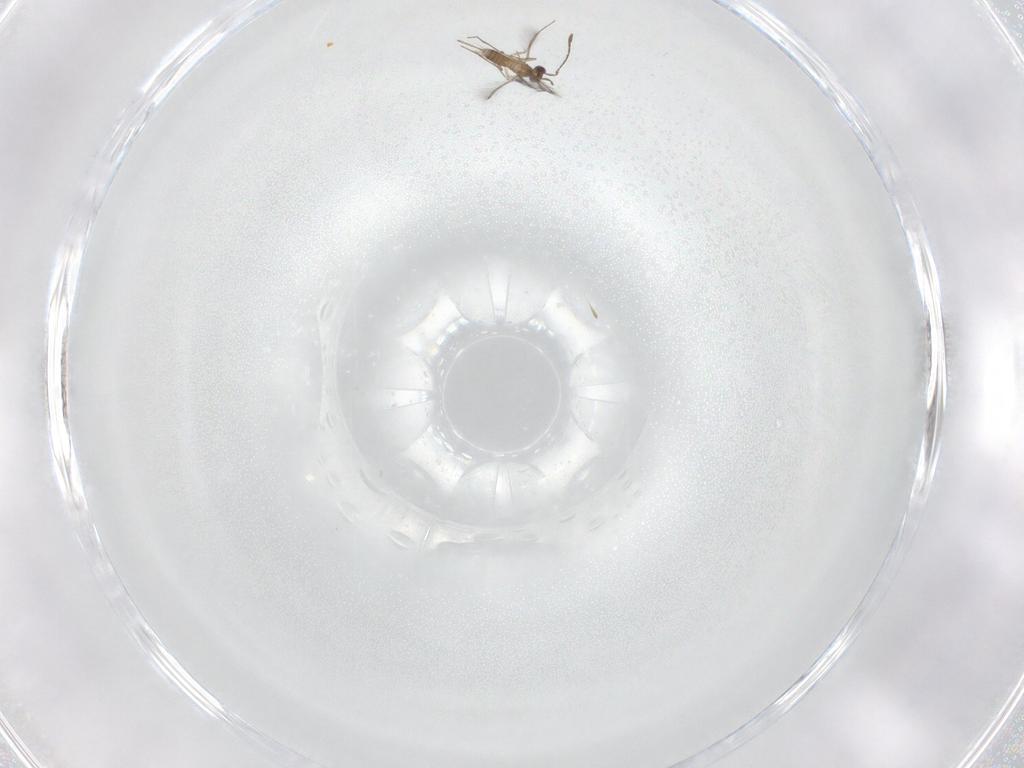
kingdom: Animalia
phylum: Arthropoda
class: Insecta
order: Hymenoptera
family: Mymaridae
